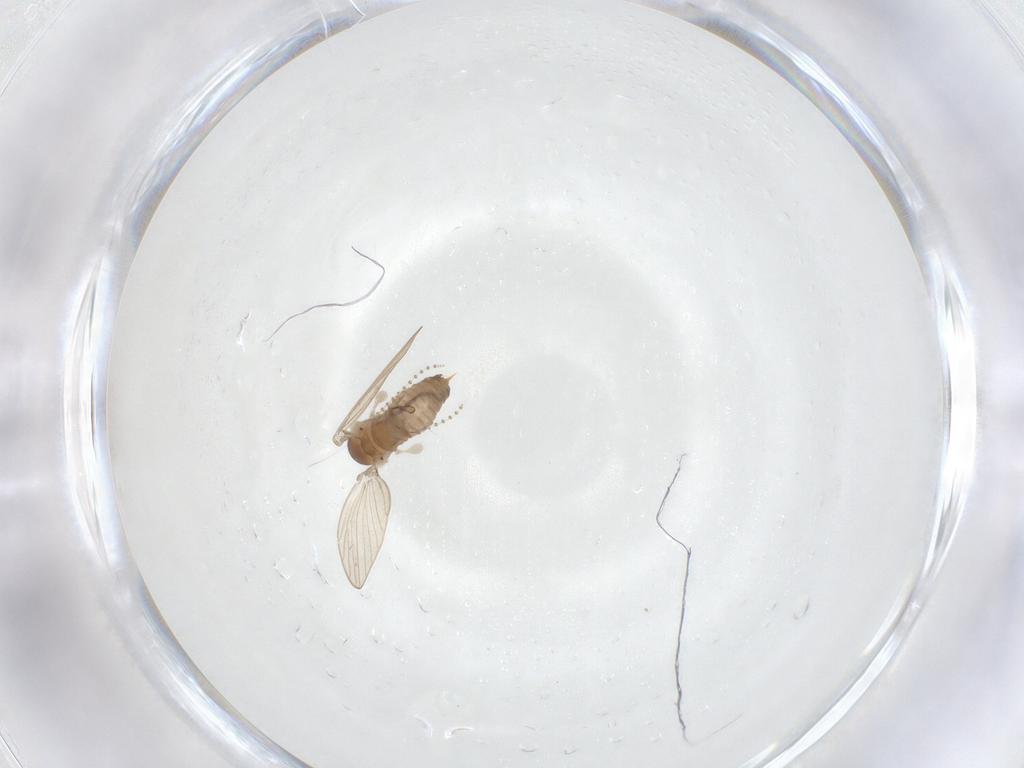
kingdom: Animalia
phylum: Arthropoda
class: Insecta
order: Diptera
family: Psychodidae
